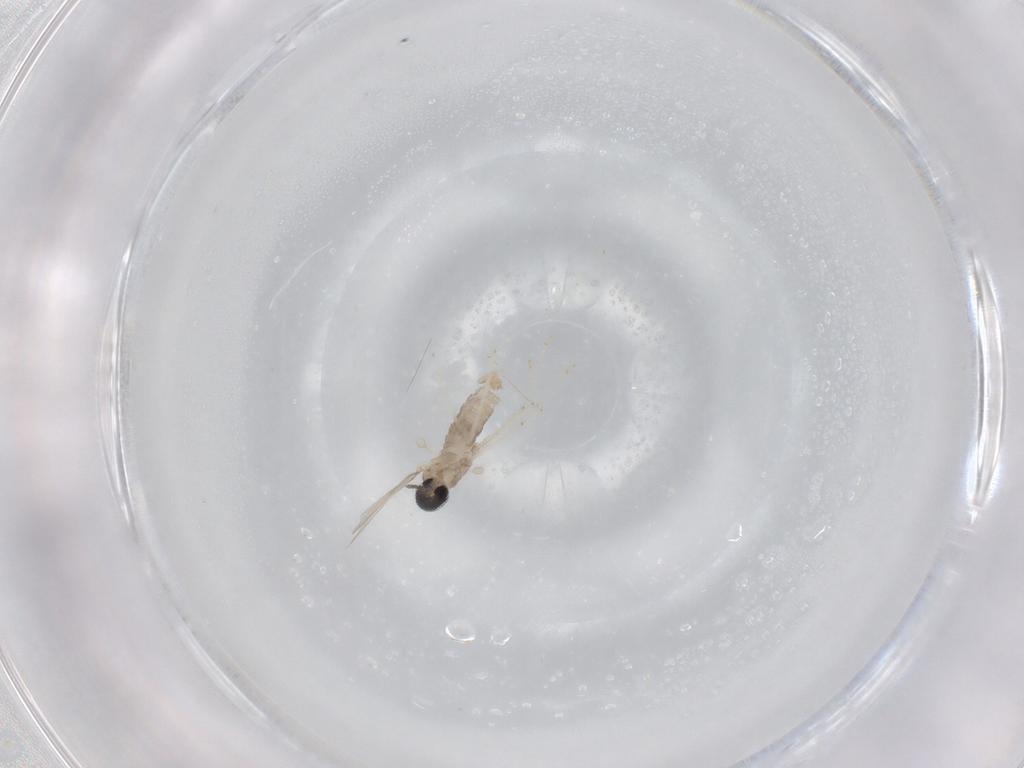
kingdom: Animalia
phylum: Arthropoda
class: Insecta
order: Diptera
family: Cecidomyiidae
